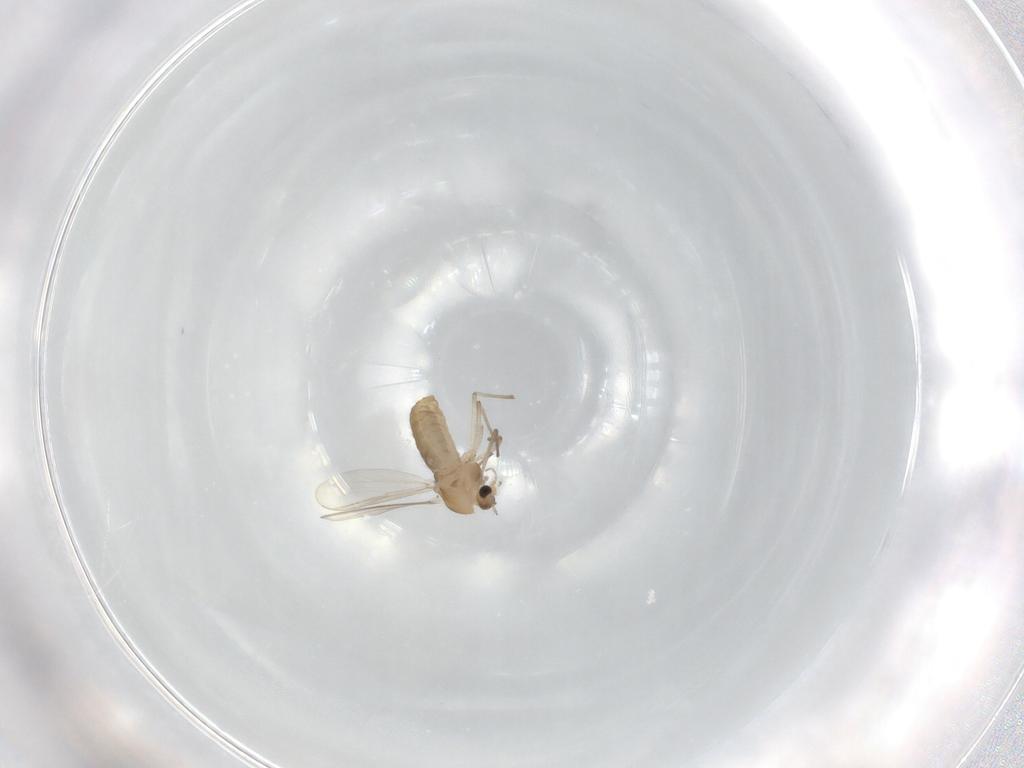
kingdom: Animalia
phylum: Arthropoda
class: Insecta
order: Diptera
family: Chironomidae
